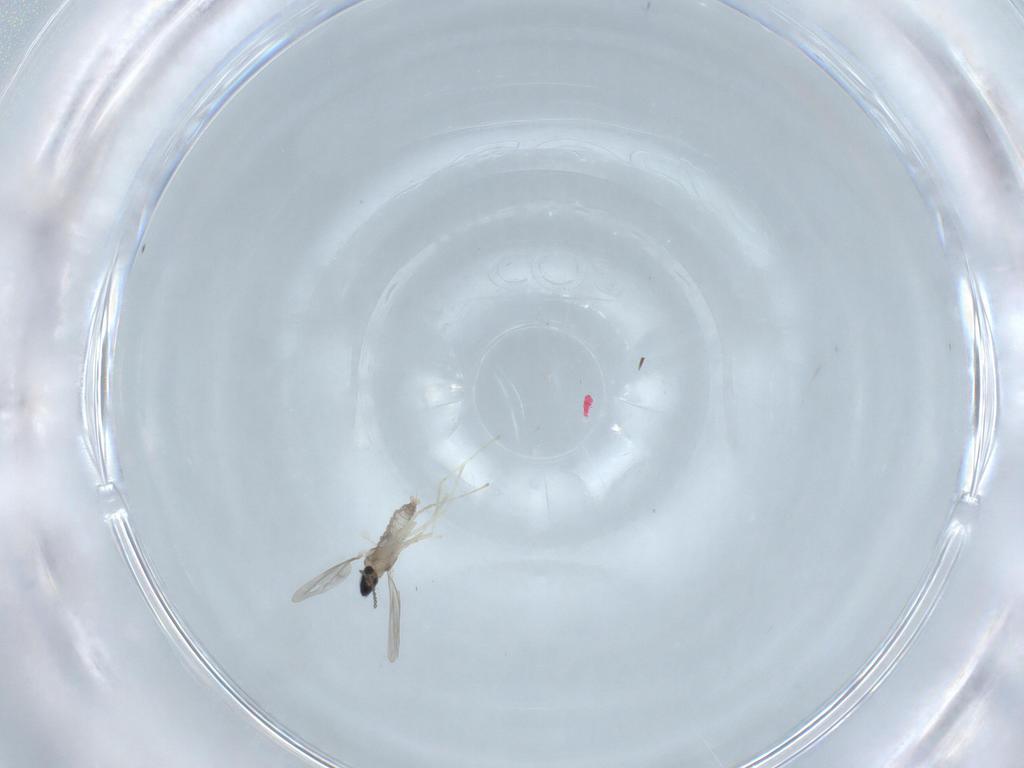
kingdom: Animalia
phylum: Arthropoda
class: Insecta
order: Diptera
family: Cecidomyiidae
